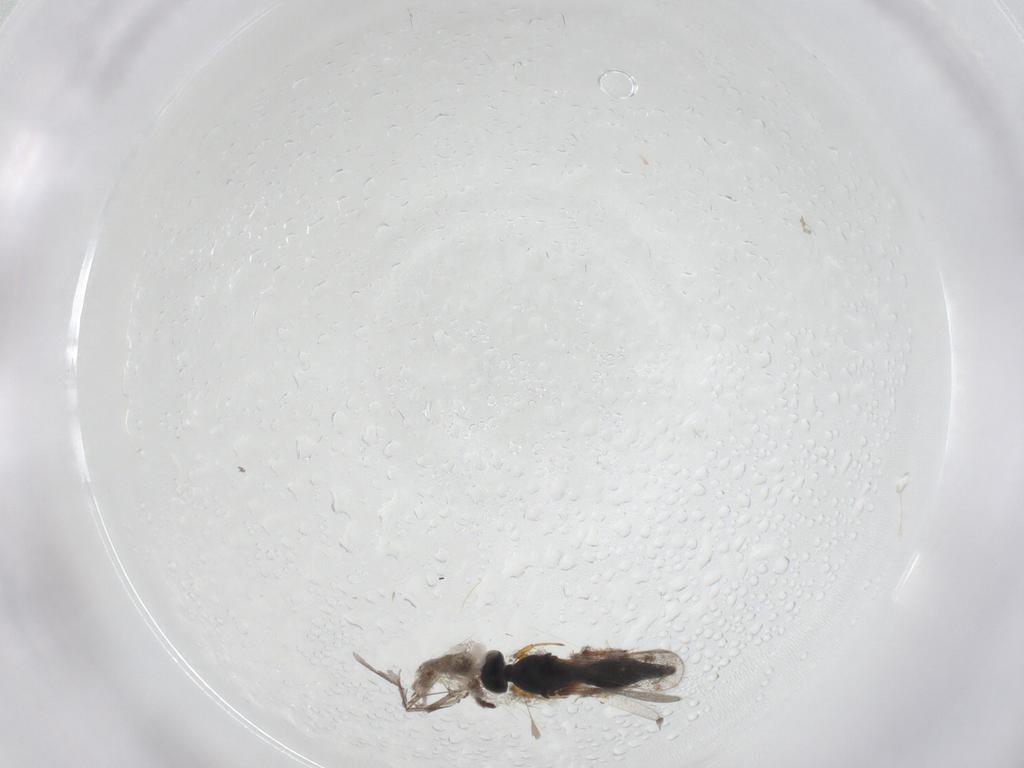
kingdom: Animalia
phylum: Arthropoda
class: Insecta
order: Hymenoptera
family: Platygastridae
